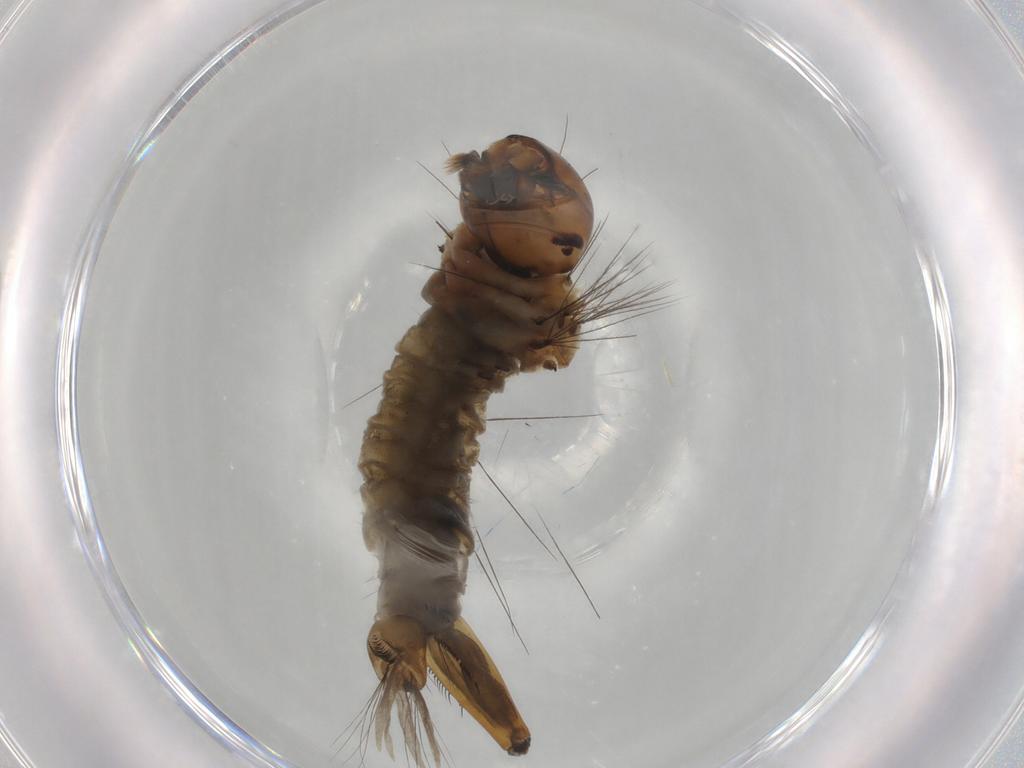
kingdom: Animalia
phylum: Arthropoda
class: Insecta
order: Diptera
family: Culicidae
